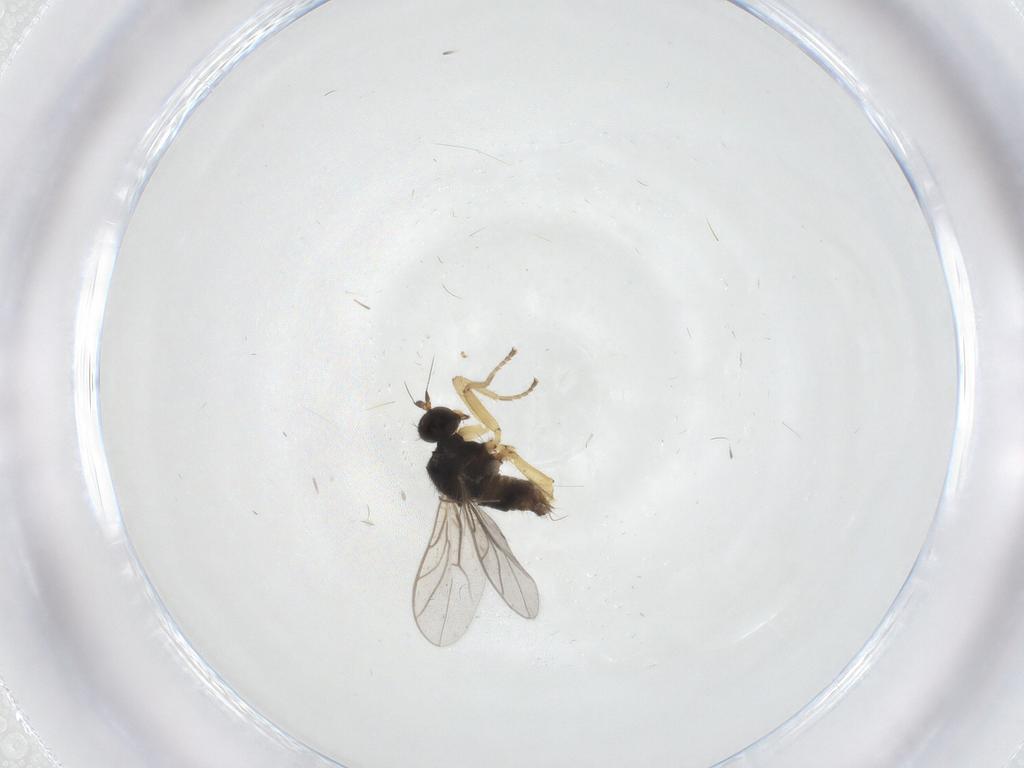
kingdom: Animalia
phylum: Arthropoda
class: Insecta
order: Diptera
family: Hybotidae
